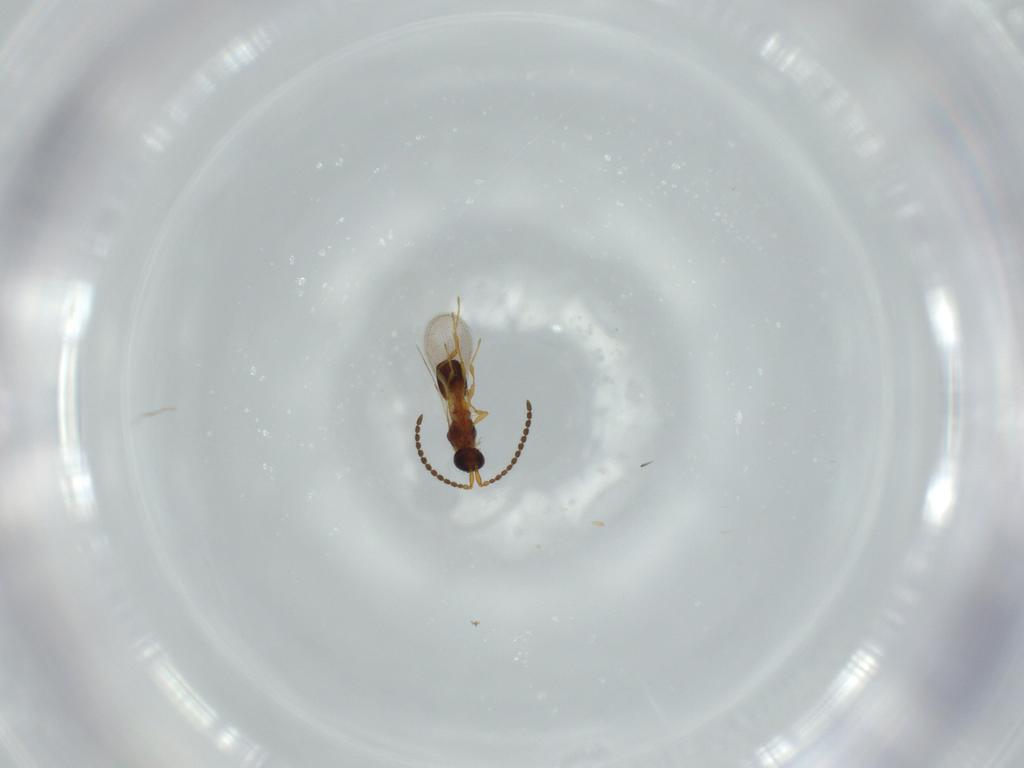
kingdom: Animalia
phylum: Arthropoda
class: Insecta
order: Hymenoptera
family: Diapriidae
